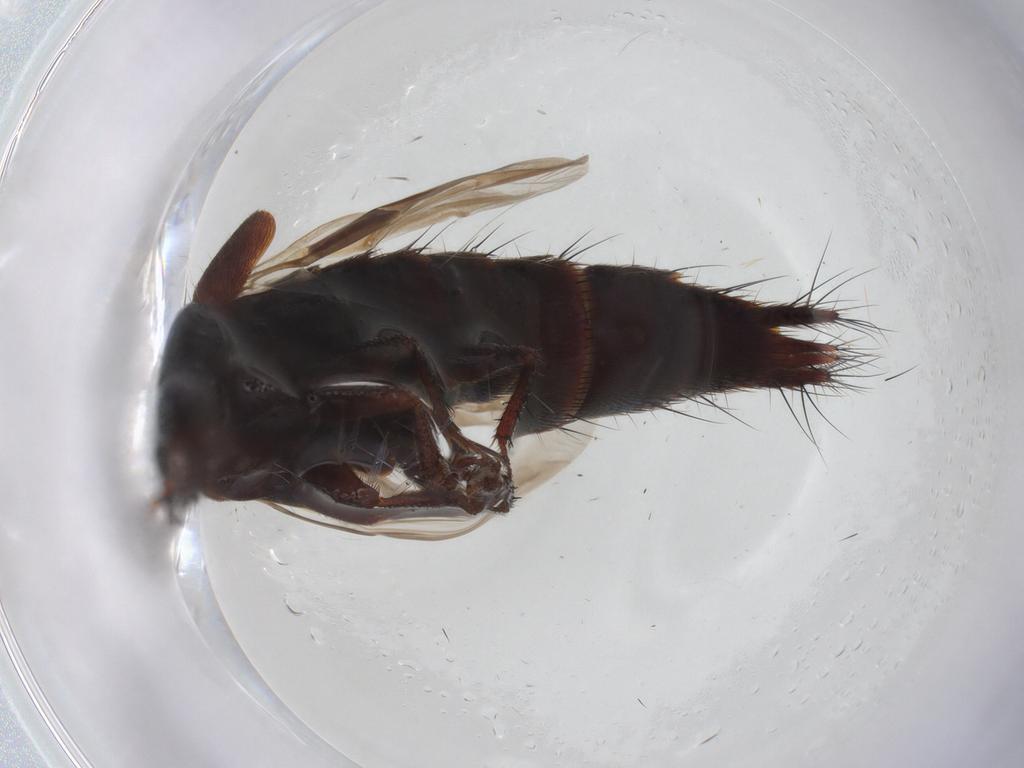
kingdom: Animalia
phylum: Arthropoda
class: Insecta
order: Coleoptera
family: Staphylinidae
